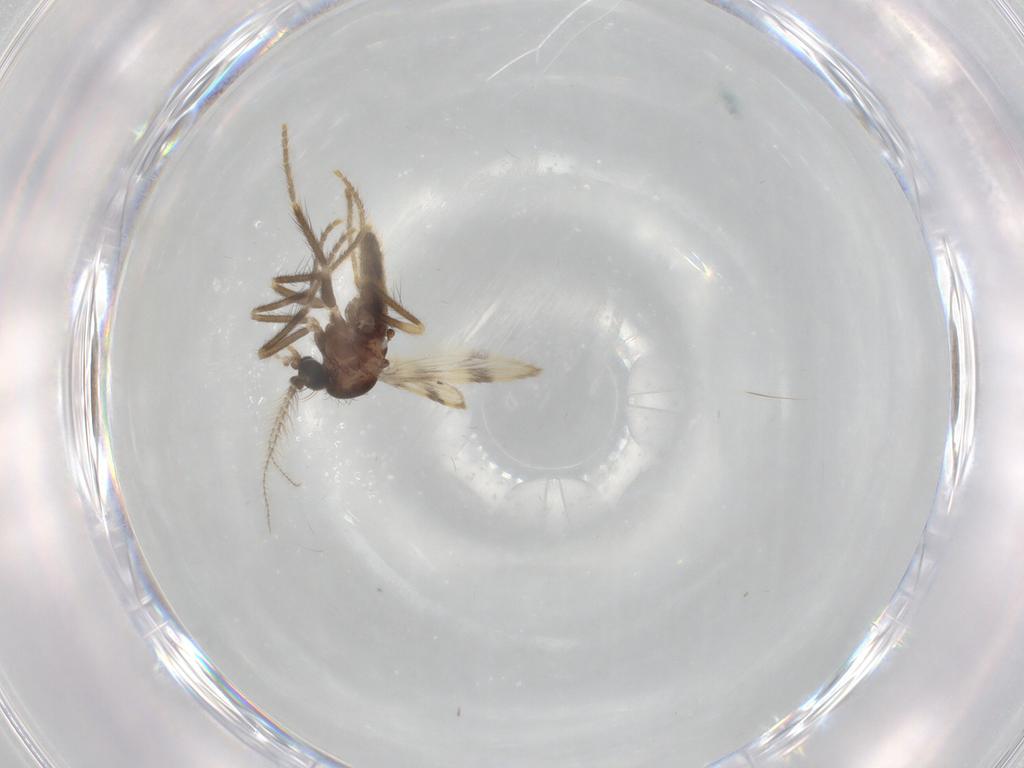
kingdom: Animalia
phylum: Arthropoda
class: Insecta
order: Diptera
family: Corethrellidae
